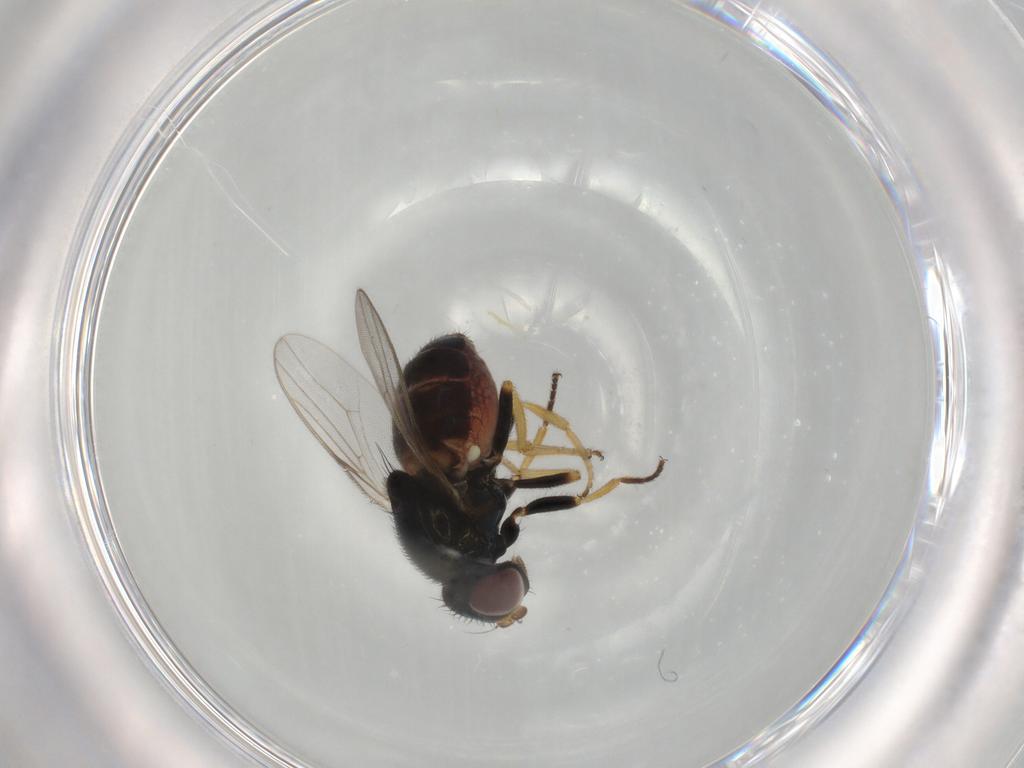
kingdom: Animalia
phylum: Arthropoda
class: Insecta
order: Diptera
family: Chloropidae
